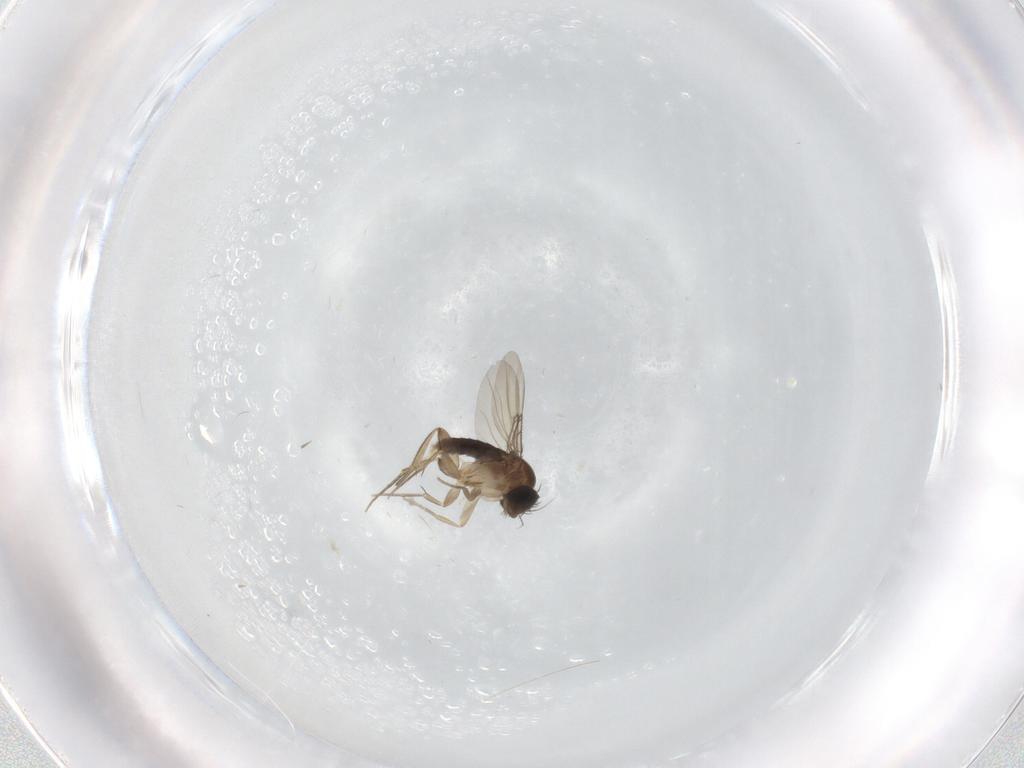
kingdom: Animalia
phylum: Arthropoda
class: Insecta
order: Diptera
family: Phoridae
